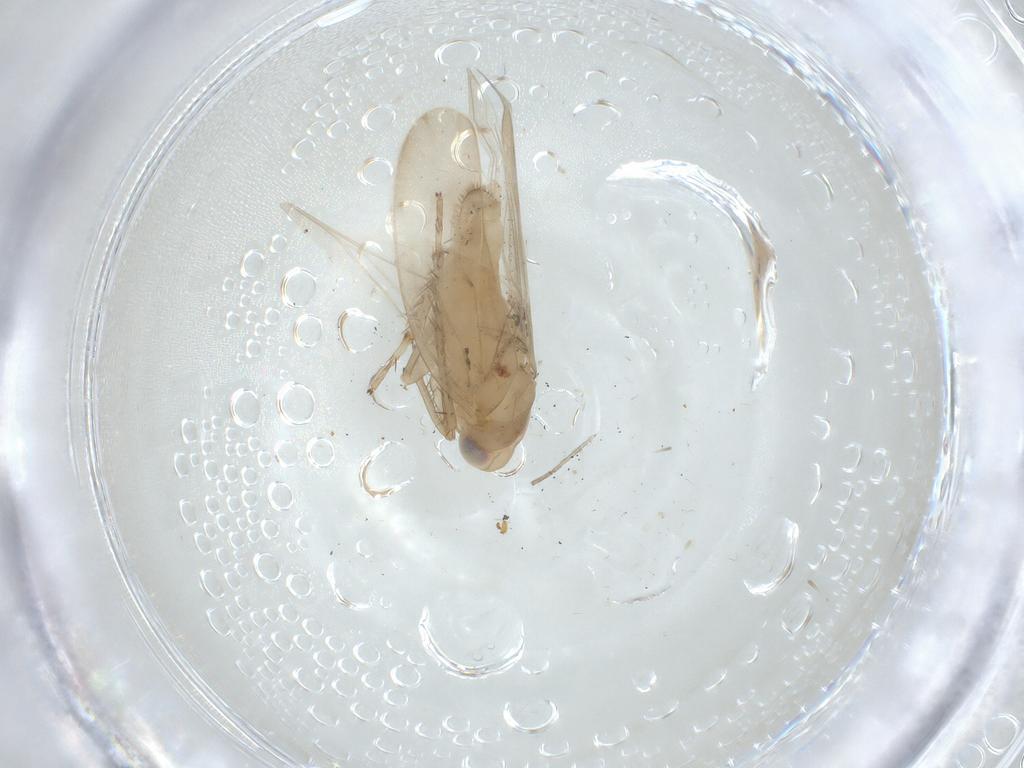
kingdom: Animalia
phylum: Arthropoda
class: Insecta
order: Hemiptera
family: Cicadellidae
